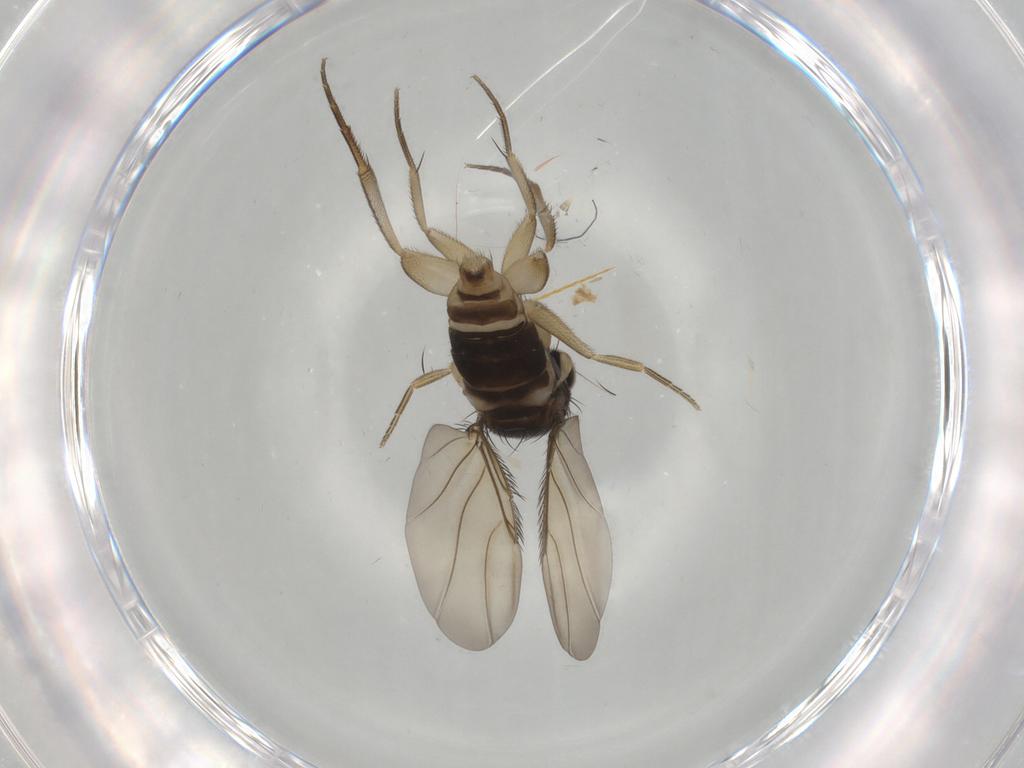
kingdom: Animalia
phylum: Arthropoda
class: Insecta
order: Diptera
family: Phoridae
